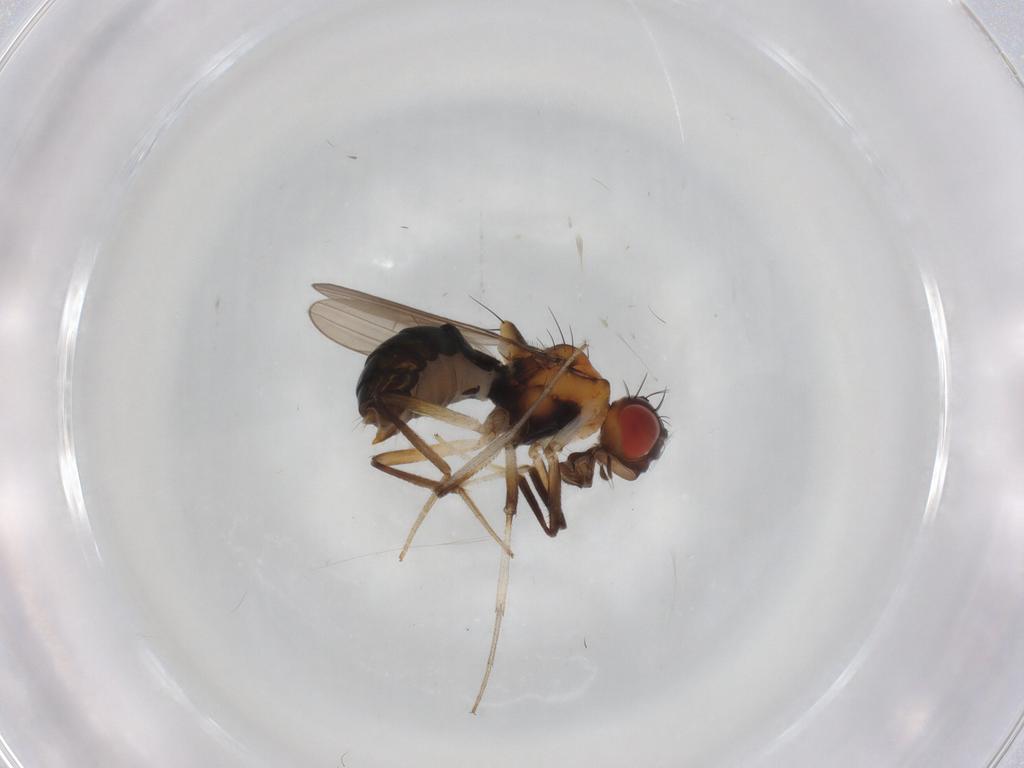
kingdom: Animalia
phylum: Arthropoda
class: Insecta
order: Diptera
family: Drosophilidae
